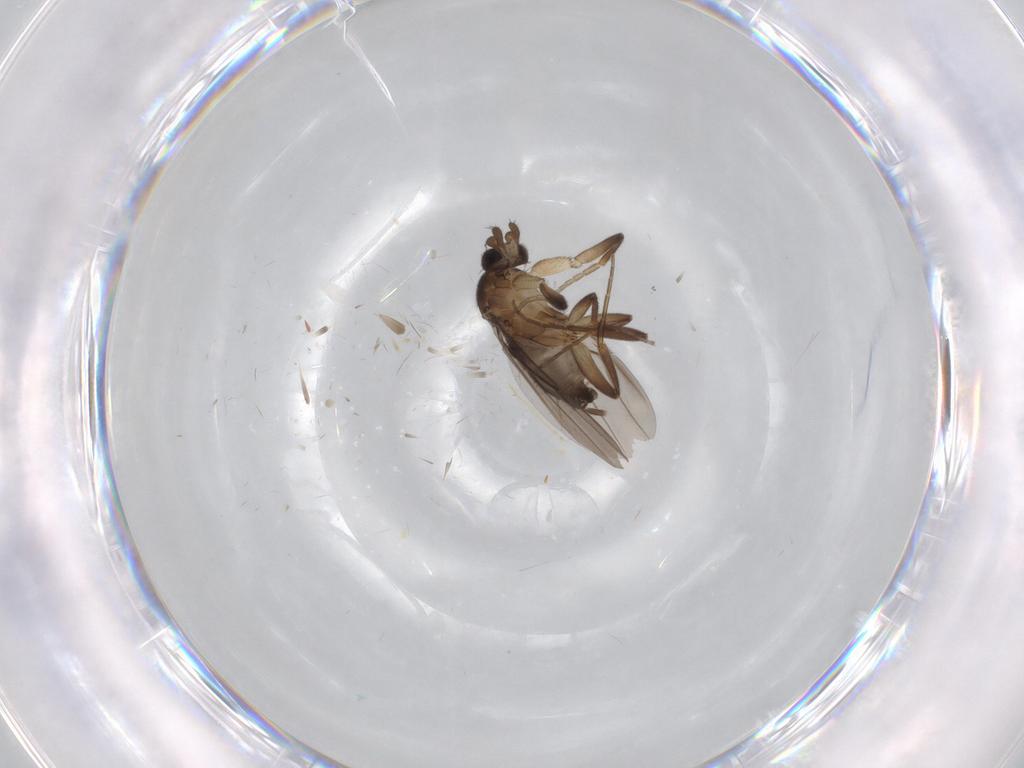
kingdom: Animalia
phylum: Arthropoda
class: Insecta
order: Diptera
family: Phoridae
